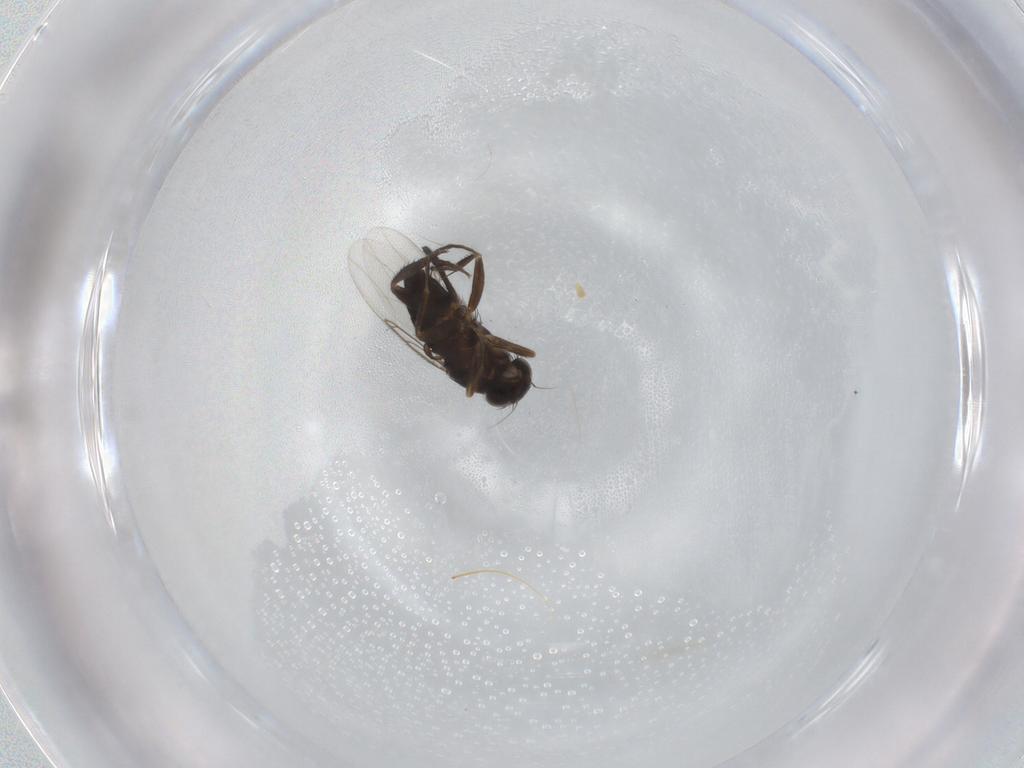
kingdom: Animalia
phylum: Arthropoda
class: Insecta
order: Diptera
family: Phoridae
